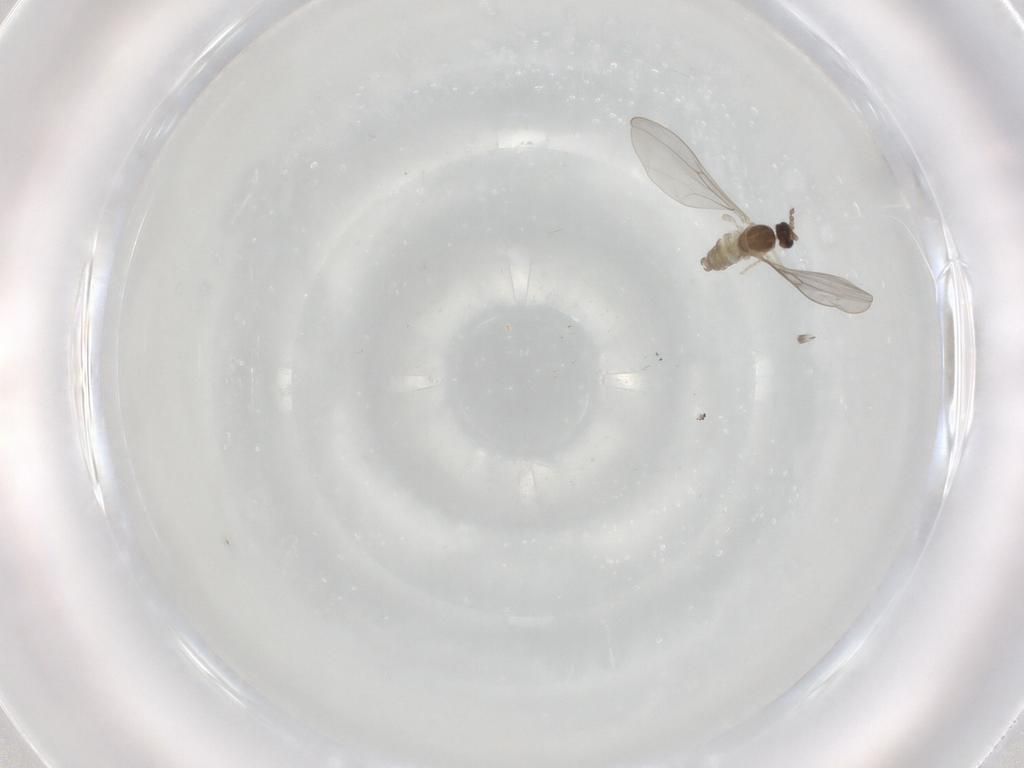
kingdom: Animalia
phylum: Arthropoda
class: Insecta
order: Diptera
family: Cecidomyiidae
